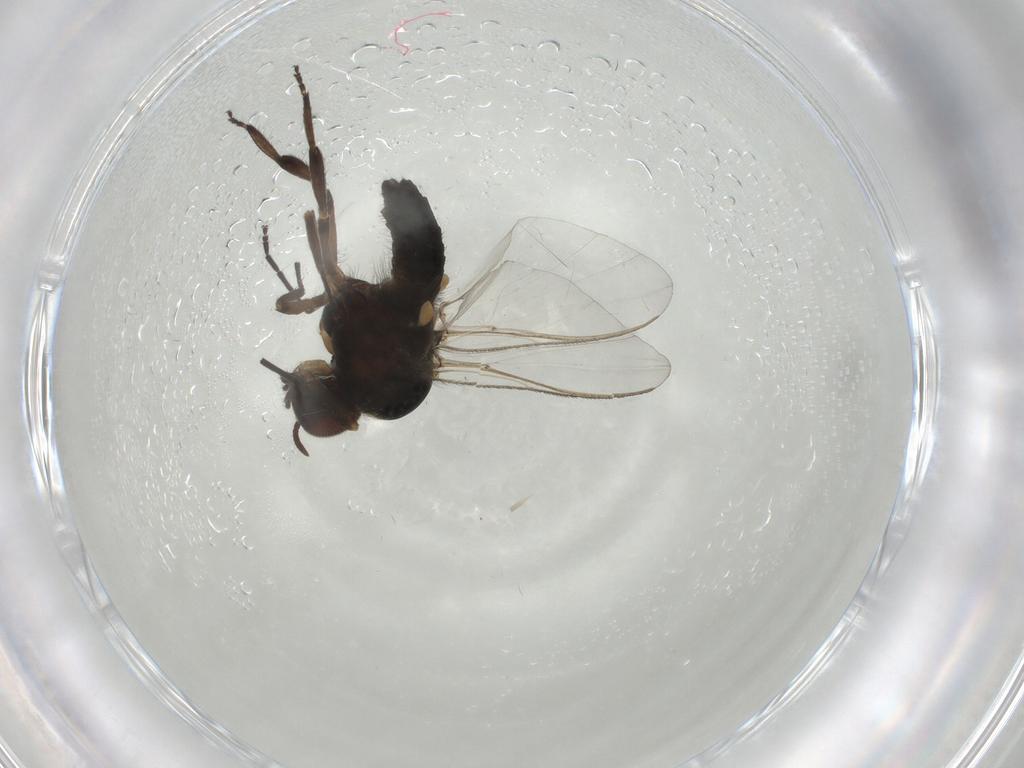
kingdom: Animalia
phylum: Arthropoda
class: Insecta
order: Diptera
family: Simuliidae
